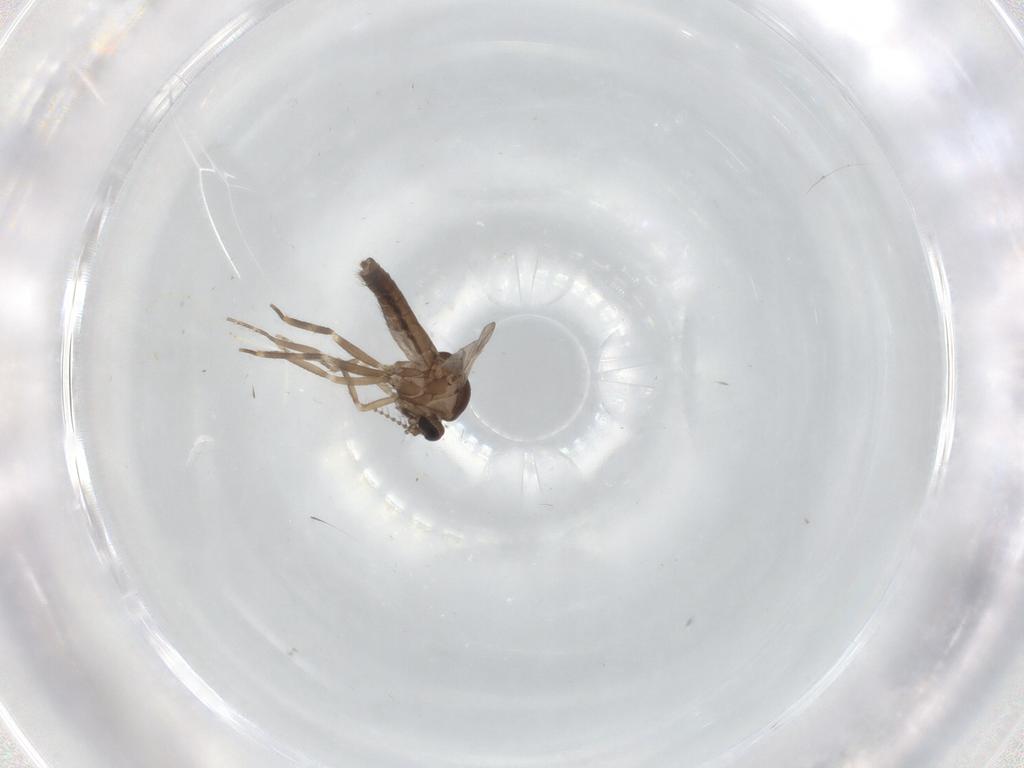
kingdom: Animalia
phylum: Arthropoda
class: Insecta
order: Diptera
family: Ceratopogonidae
